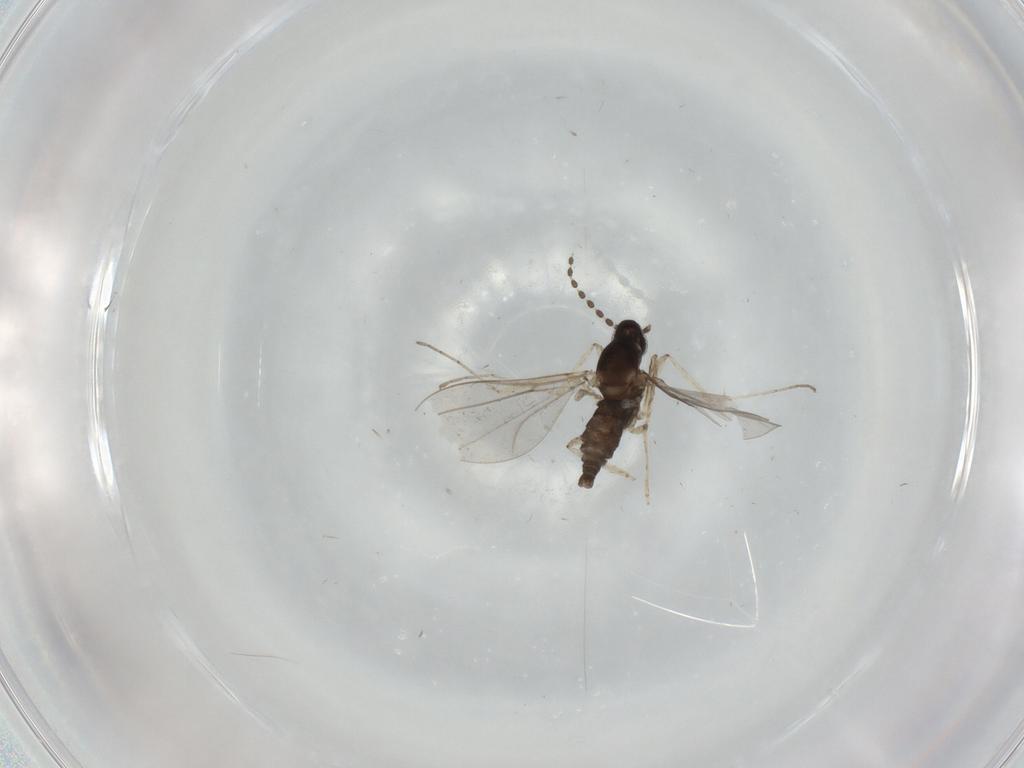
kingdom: Animalia
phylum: Arthropoda
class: Insecta
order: Diptera
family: Cecidomyiidae
